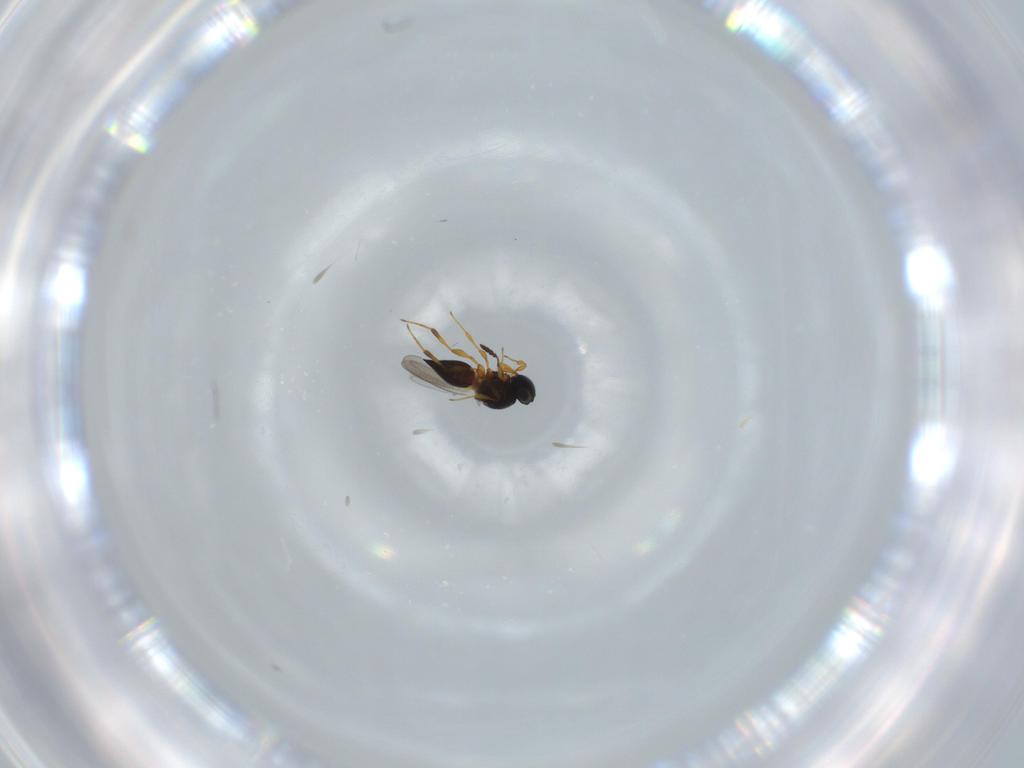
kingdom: Animalia
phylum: Arthropoda
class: Insecta
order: Hymenoptera
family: Platygastridae
